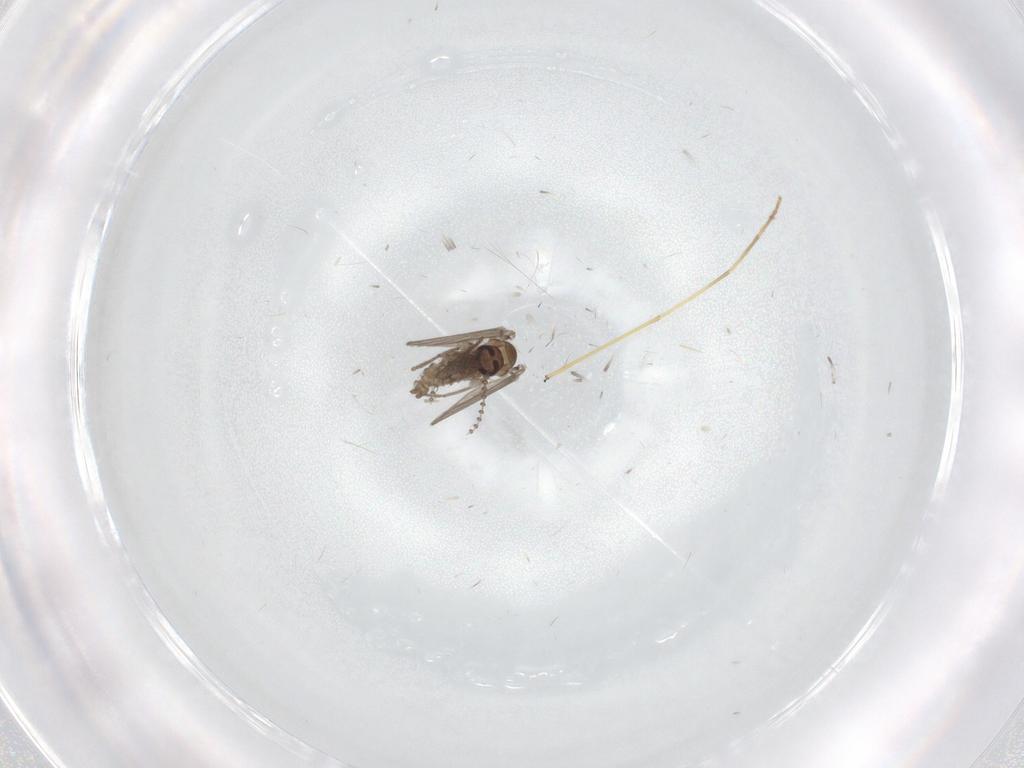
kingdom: Animalia
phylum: Arthropoda
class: Insecta
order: Diptera
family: Psychodidae
